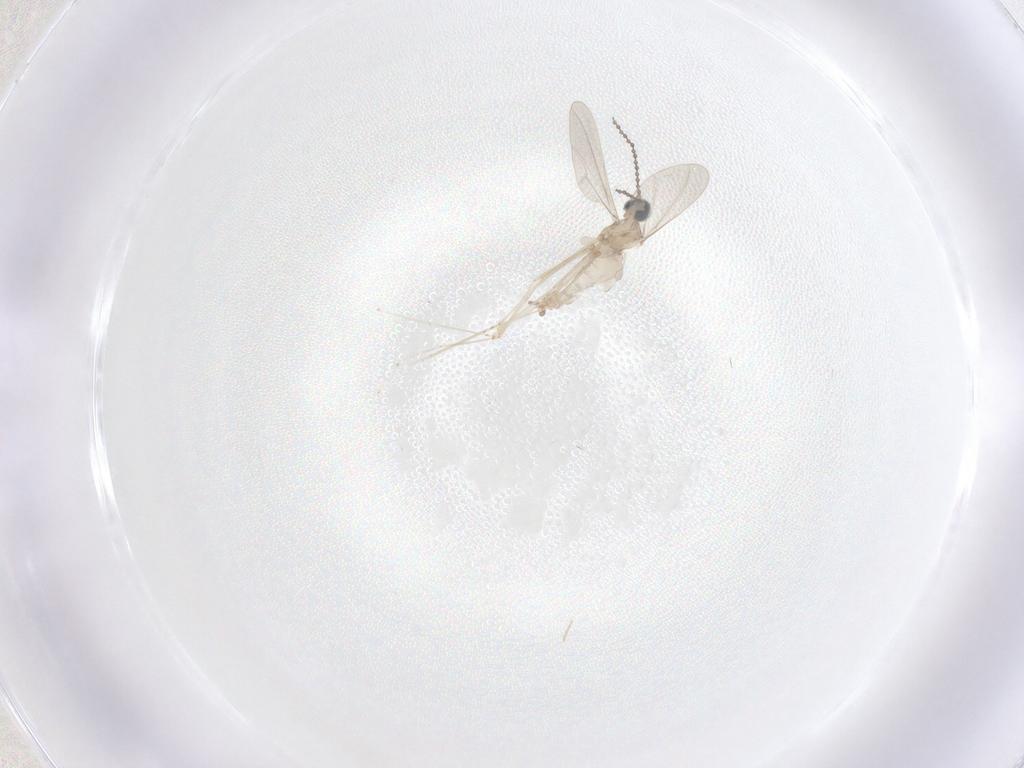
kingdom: Animalia
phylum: Arthropoda
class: Insecta
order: Diptera
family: Cecidomyiidae
